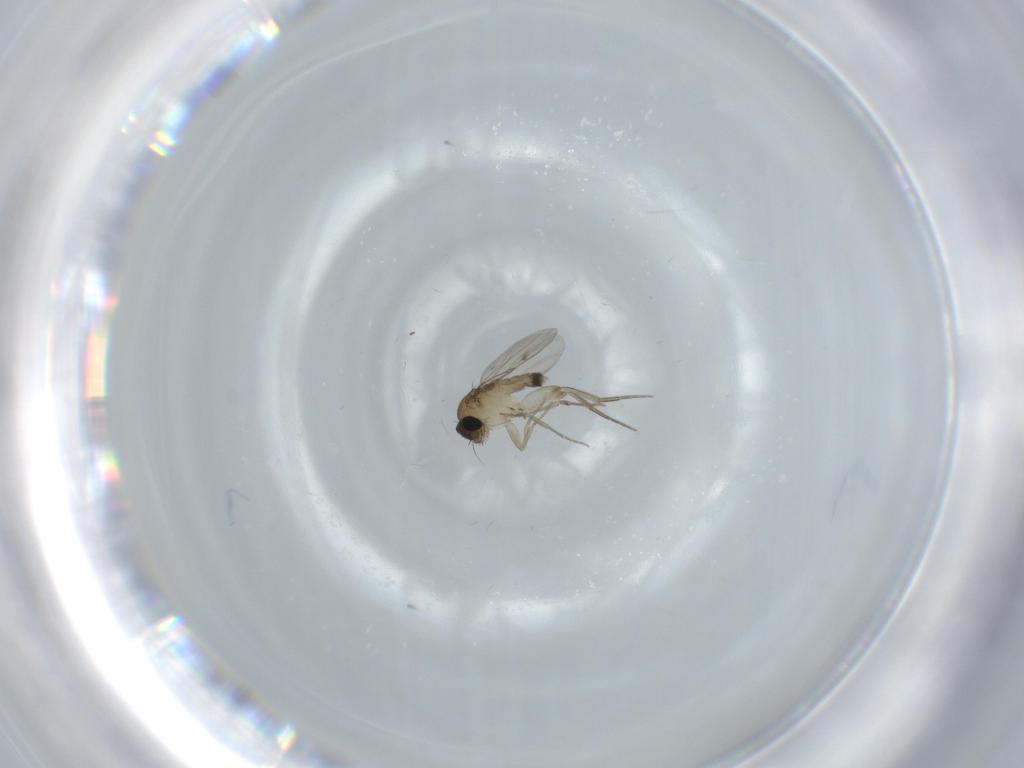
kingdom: Animalia
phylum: Arthropoda
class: Insecta
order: Diptera
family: Phoridae
